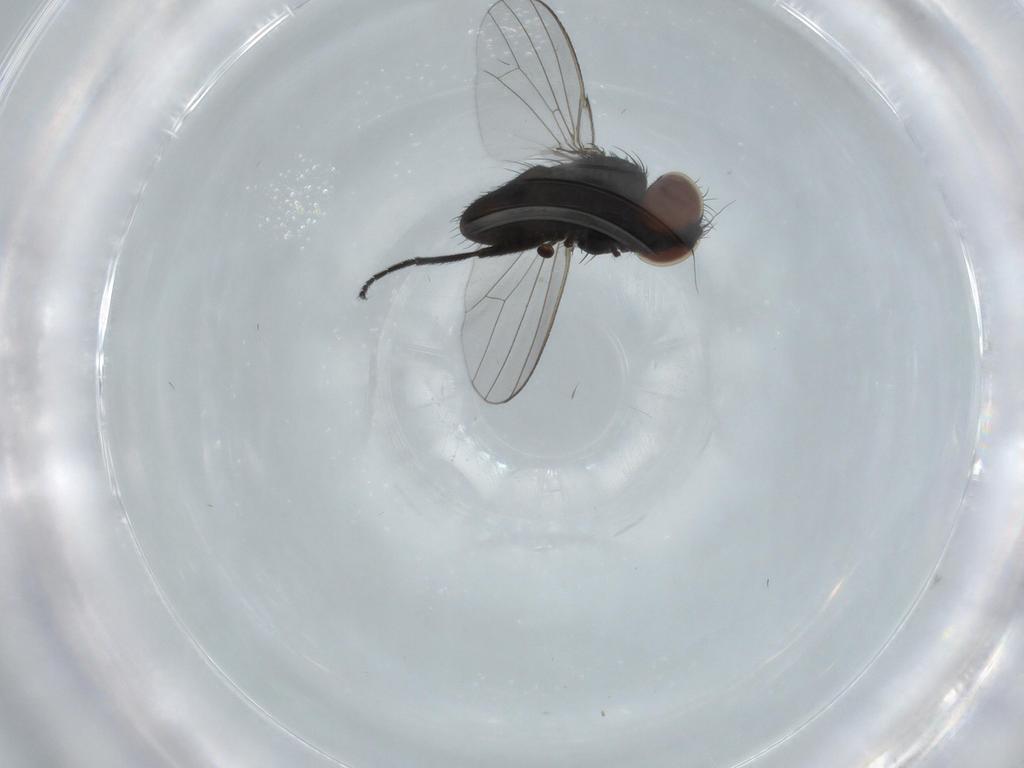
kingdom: Animalia
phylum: Arthropoda
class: Insecta
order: Diptera
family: Milichiidae
